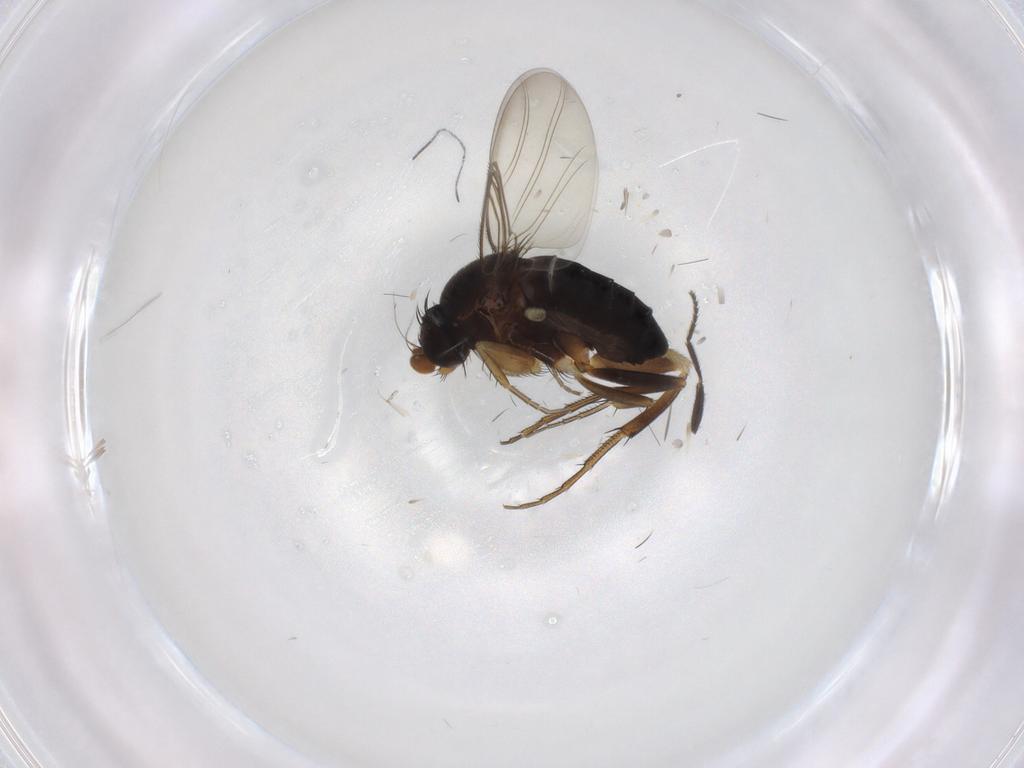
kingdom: Animalia
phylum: Arthropoda
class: Insecta
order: Diptera
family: Phoridae
